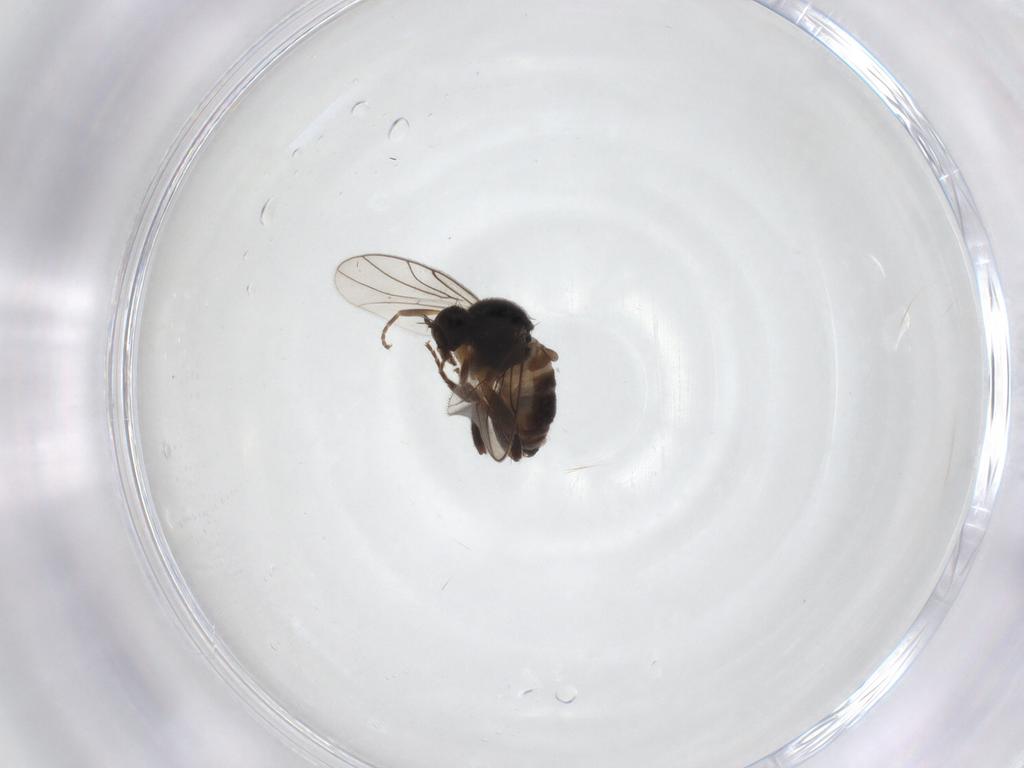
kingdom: Animalia
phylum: Arthropoda
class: Insecta
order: Diptera
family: Hybotidae
